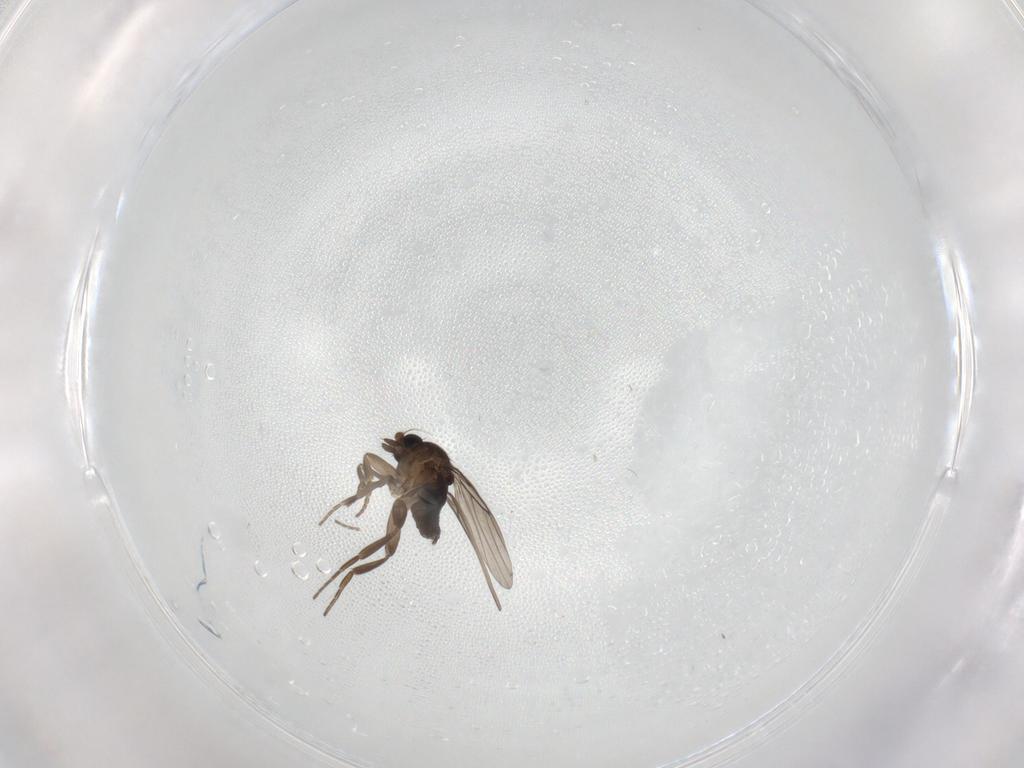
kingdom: Animalia
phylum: Arthropoda
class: Insecta
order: Diptera
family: Phoridae
